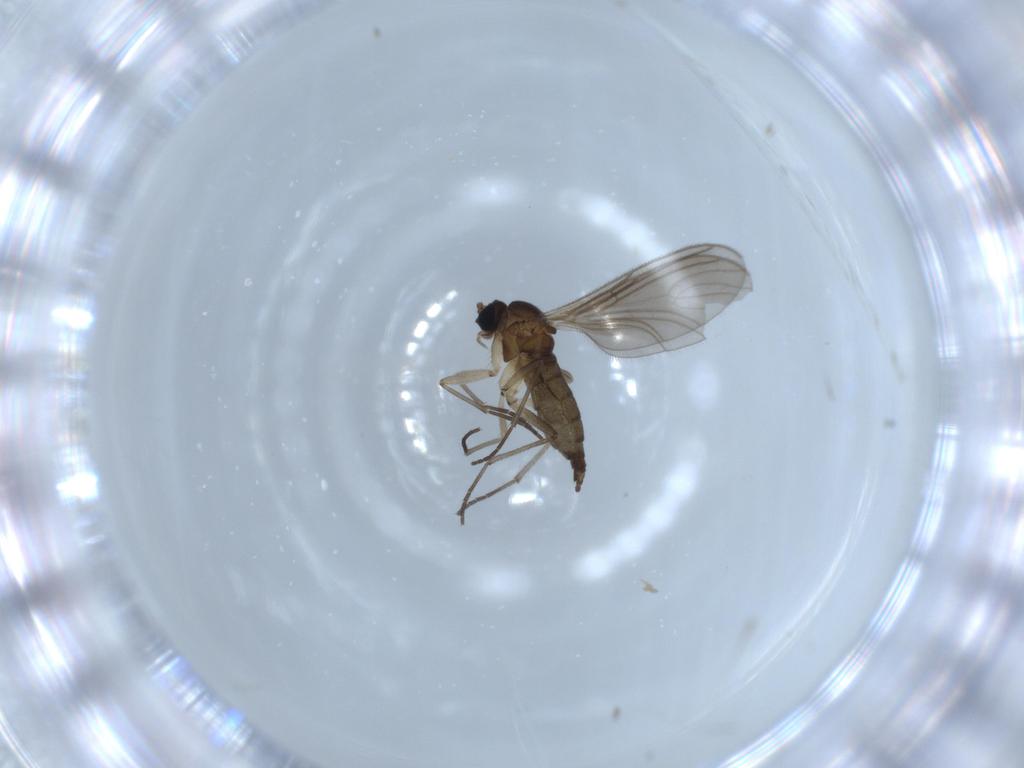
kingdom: Animalia
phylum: Arthropoda
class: Insecta
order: Diptera
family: Sciaridae
